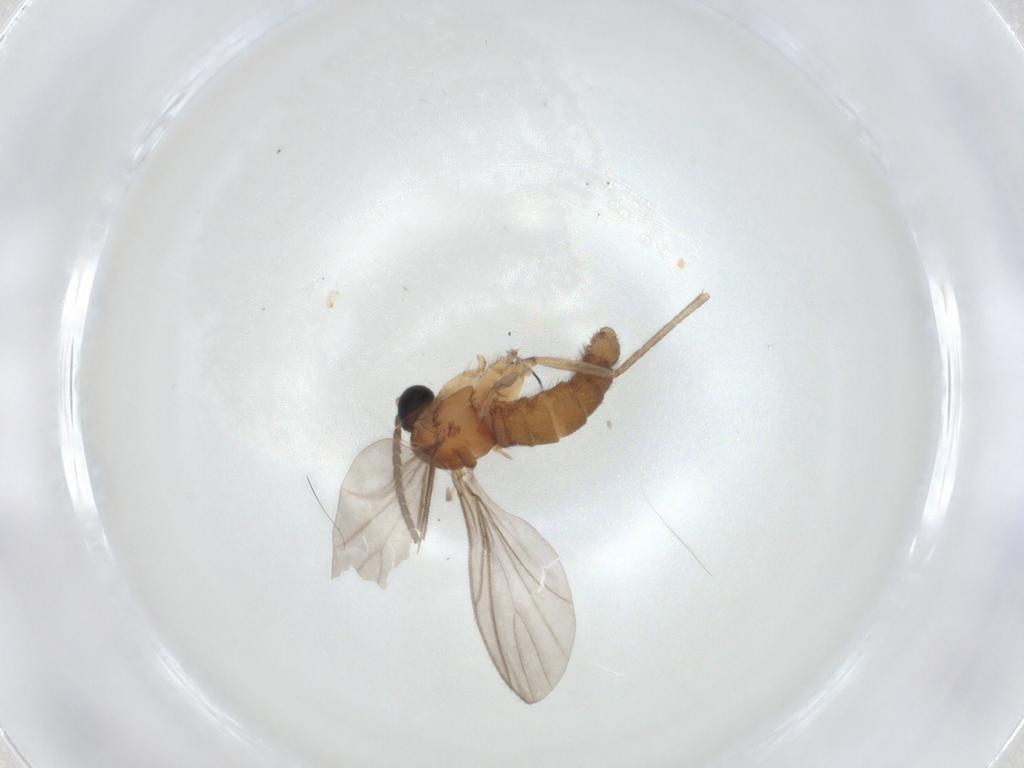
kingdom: Animalia
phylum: Arthropoda
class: Insecta
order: Diptera
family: Sciaridae
